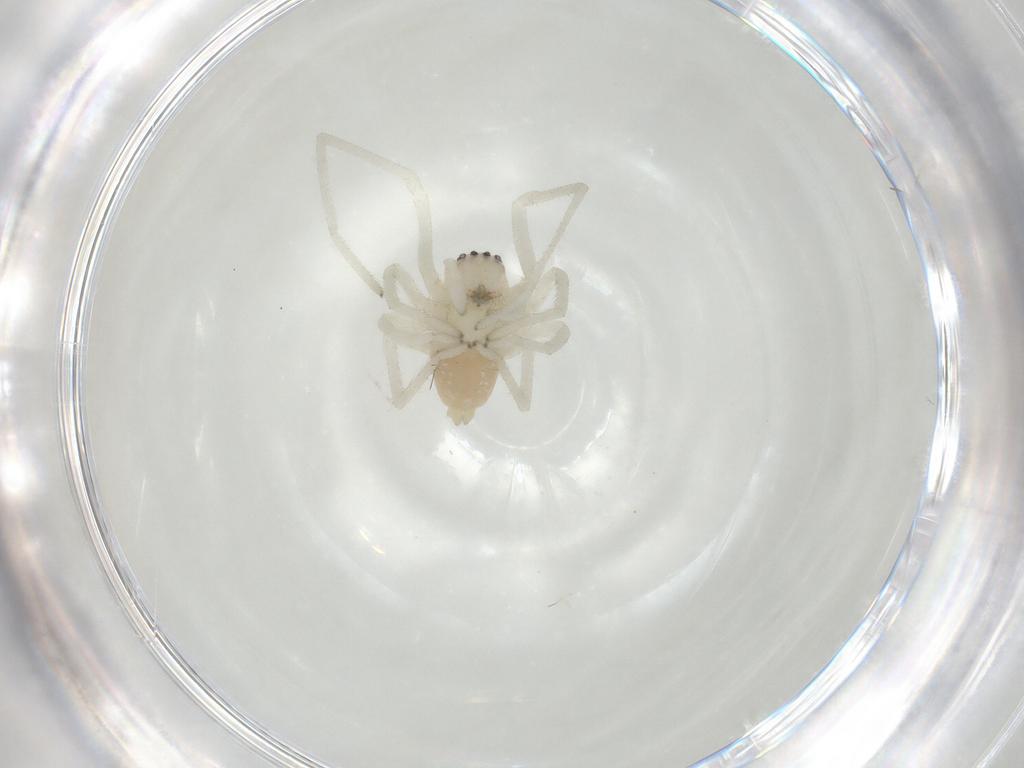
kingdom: Animalia
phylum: Arthropoda
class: Arachnida
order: Araneae
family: Cheiracanthiidae
